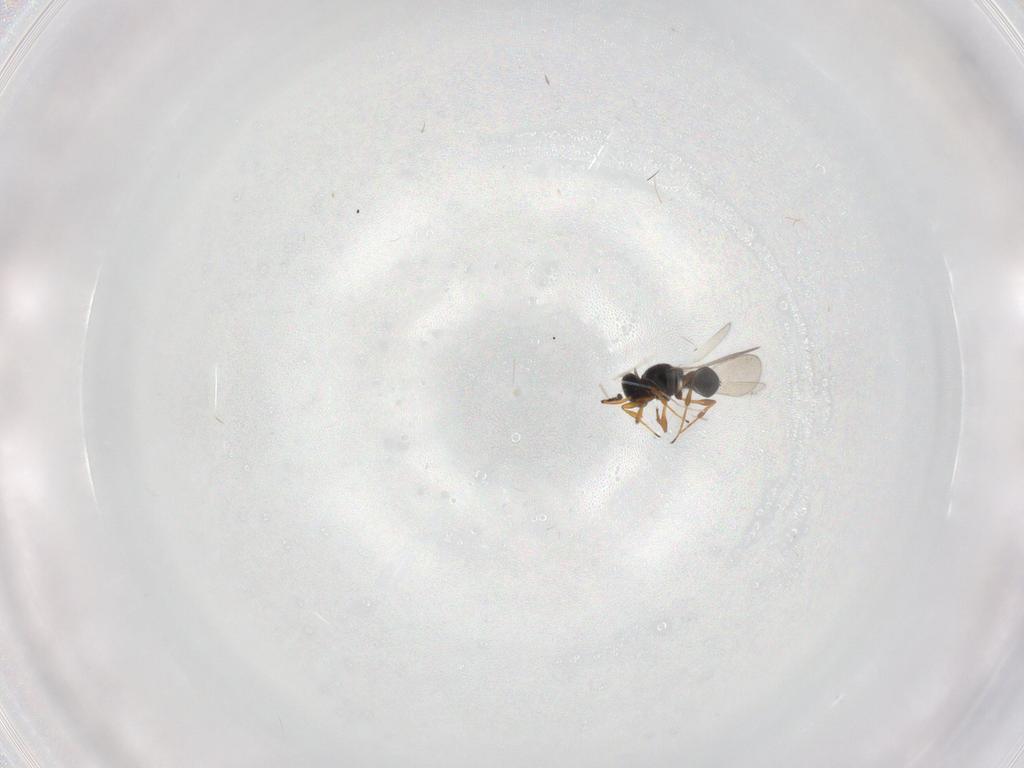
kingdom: Animalia
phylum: Arthropoda
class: Insecta
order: Hymenoptera
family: Platygastridae
